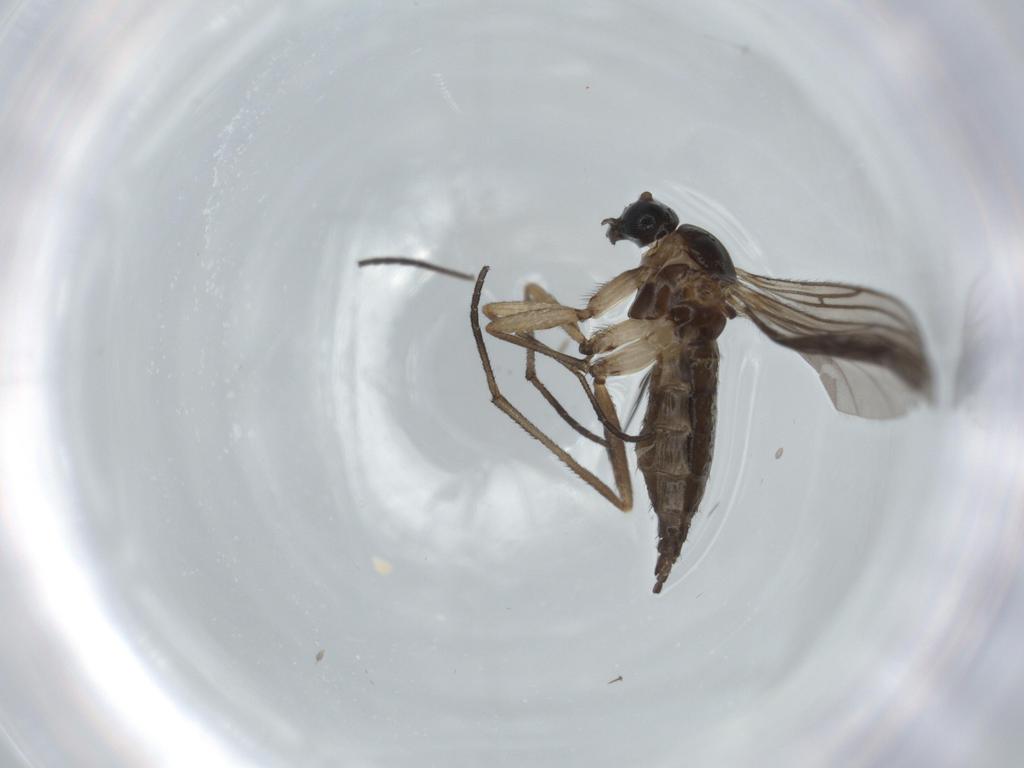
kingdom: Animalia
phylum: Arthropoda
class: Insecta
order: Diptera
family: Sciaridae
